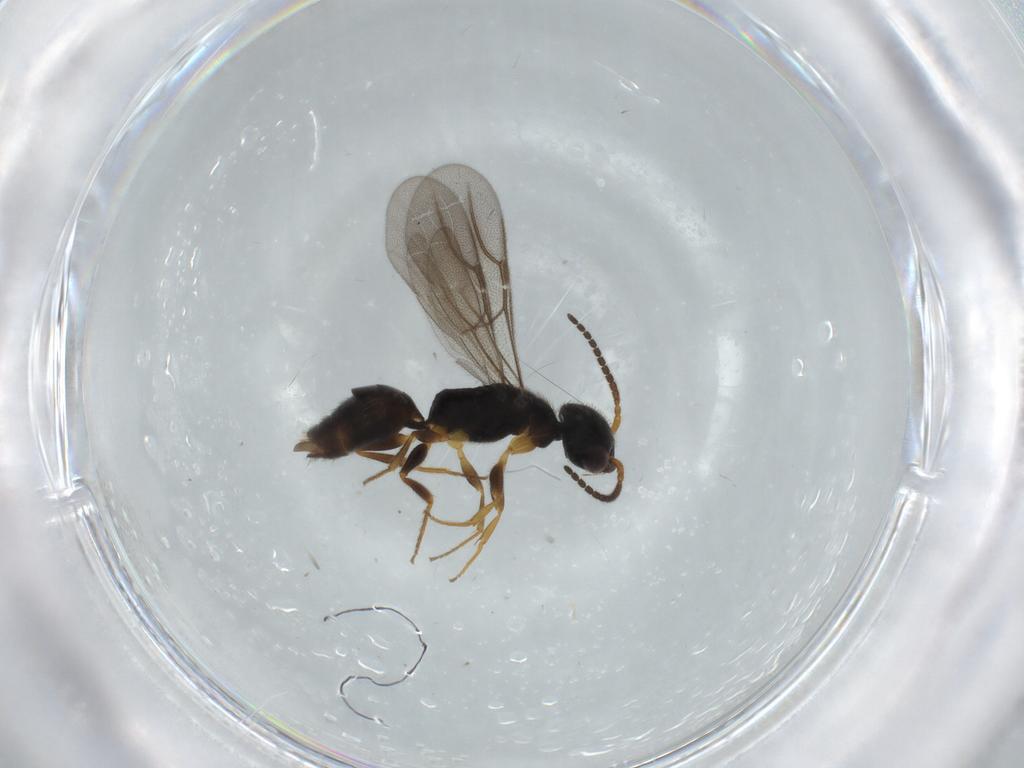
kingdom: Animalia
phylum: Arthropoda
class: Insecta
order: Hymenoptera
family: Bethylidae
